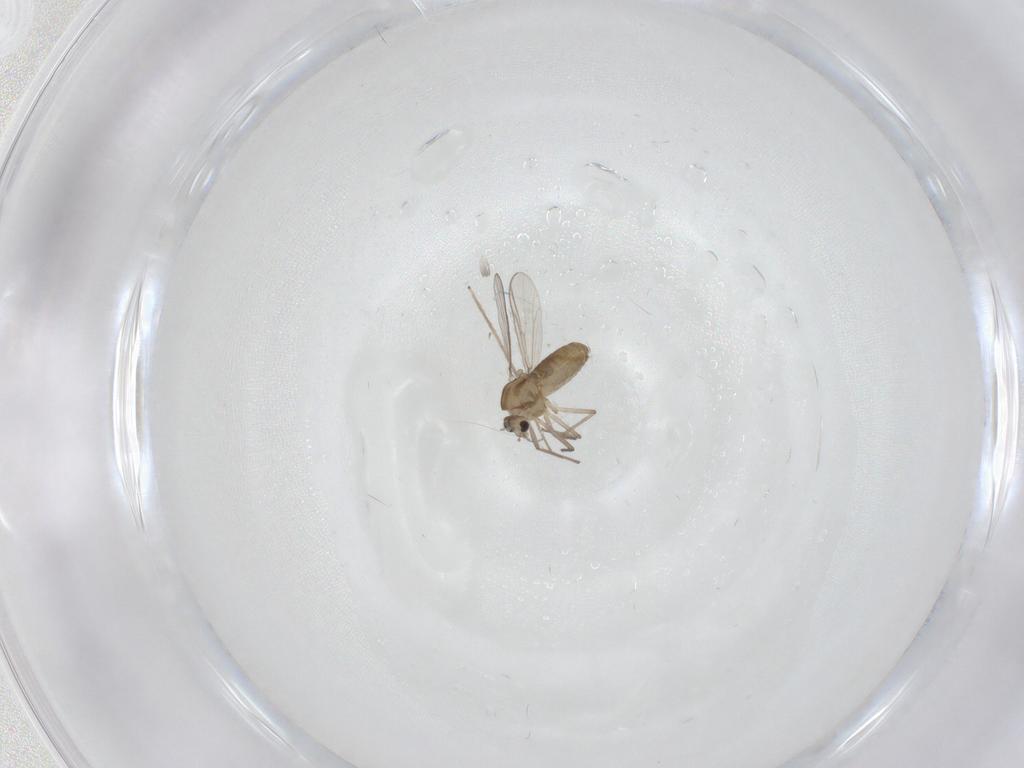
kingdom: Animalia
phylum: Arthropoda
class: Insecta
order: Diptera
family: Chironomidae
